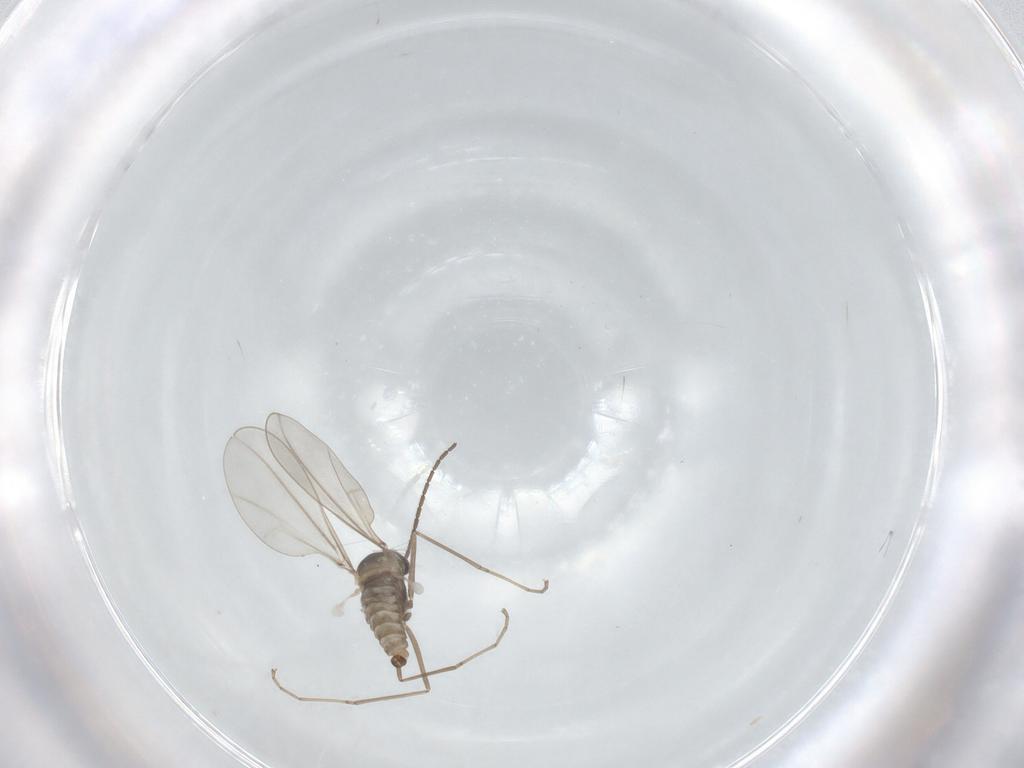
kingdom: Animalia
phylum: Arthropoda
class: Insecta
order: Diptera
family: Cecidomyiidae
